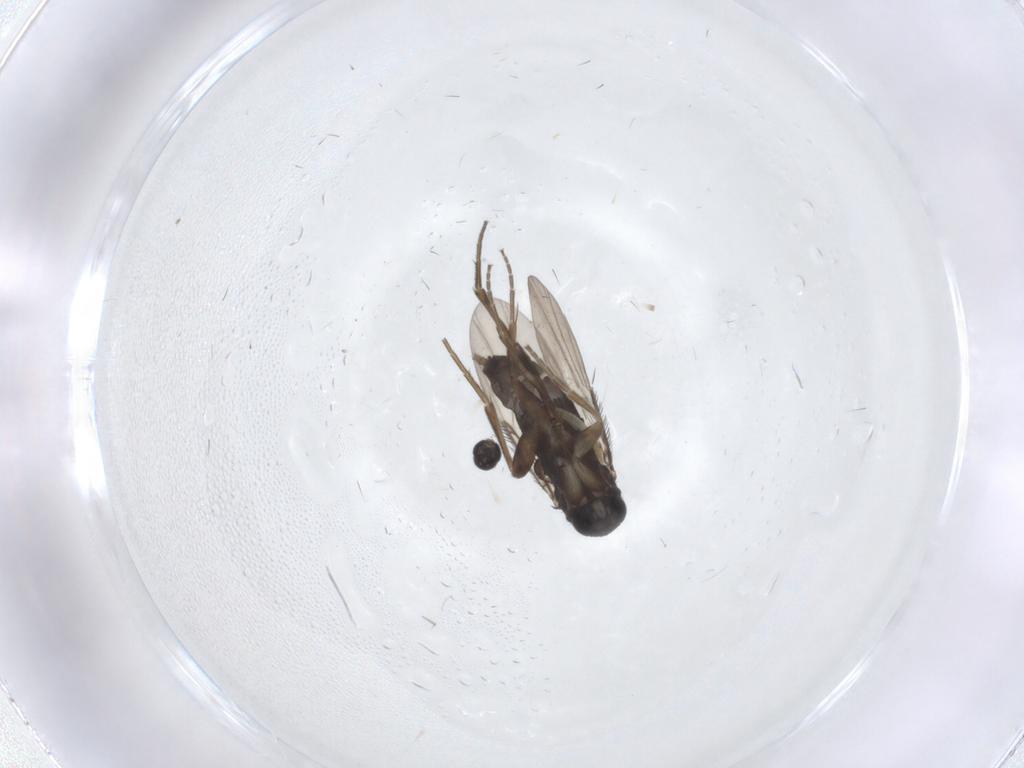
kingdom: Animalia
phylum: Arthropoda
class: Insecta
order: Diptera
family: Phoridae
